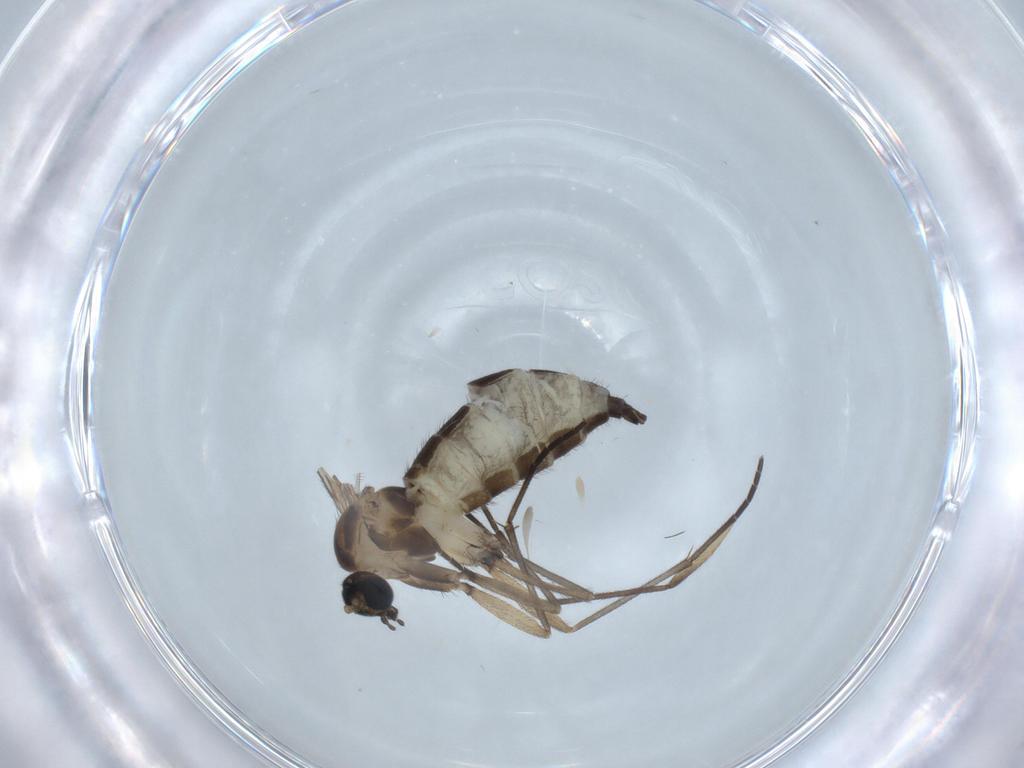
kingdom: Animalia
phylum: Arthropoda
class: Insecta
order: Diptera
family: Sciaridae
